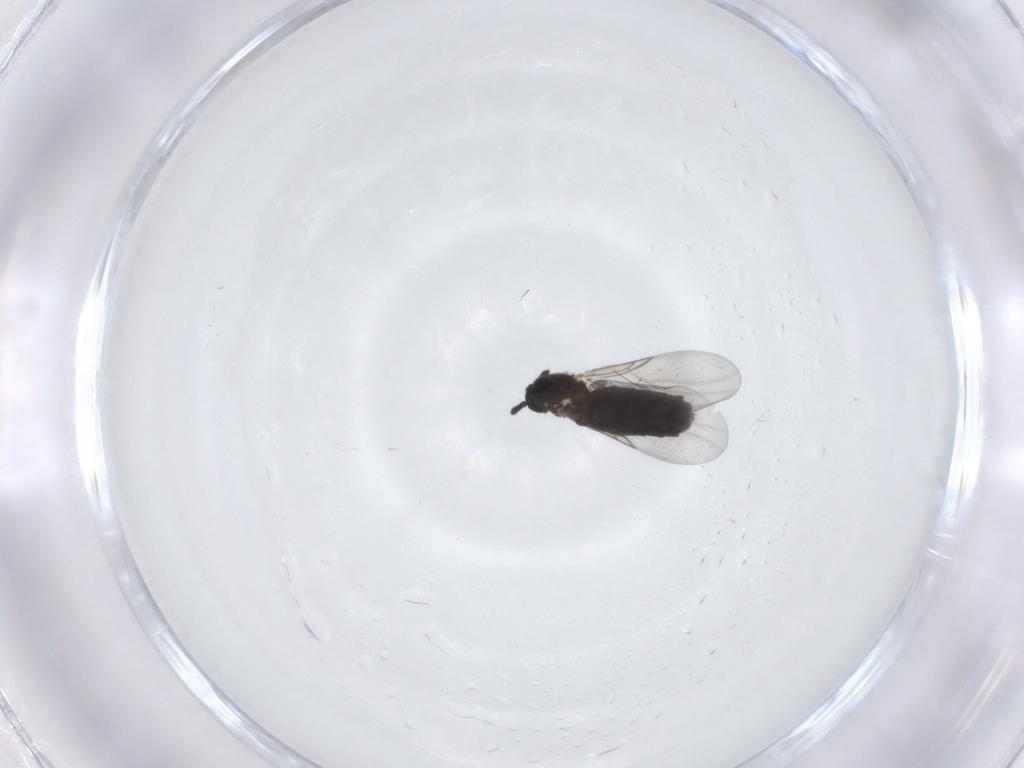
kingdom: Animalia
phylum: Arthropoda
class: Insecta
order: Diptera
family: Scatopsidae
